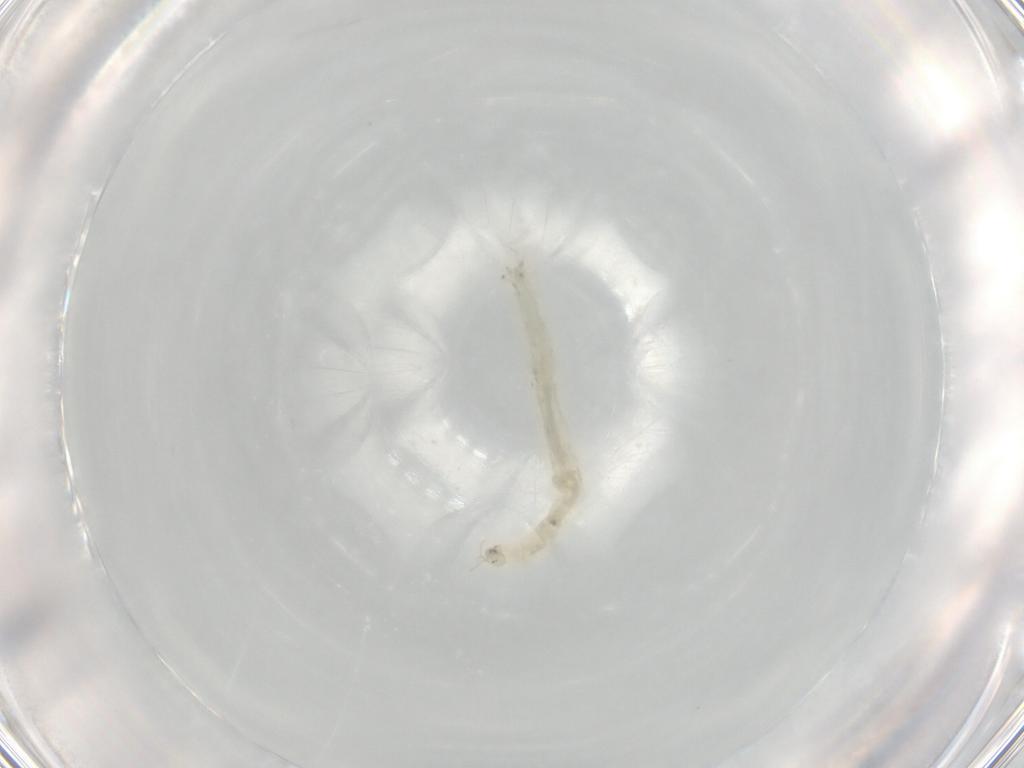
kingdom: Animalia
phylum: Arthropoda
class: Insecta
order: Diptera
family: Chironomidae
